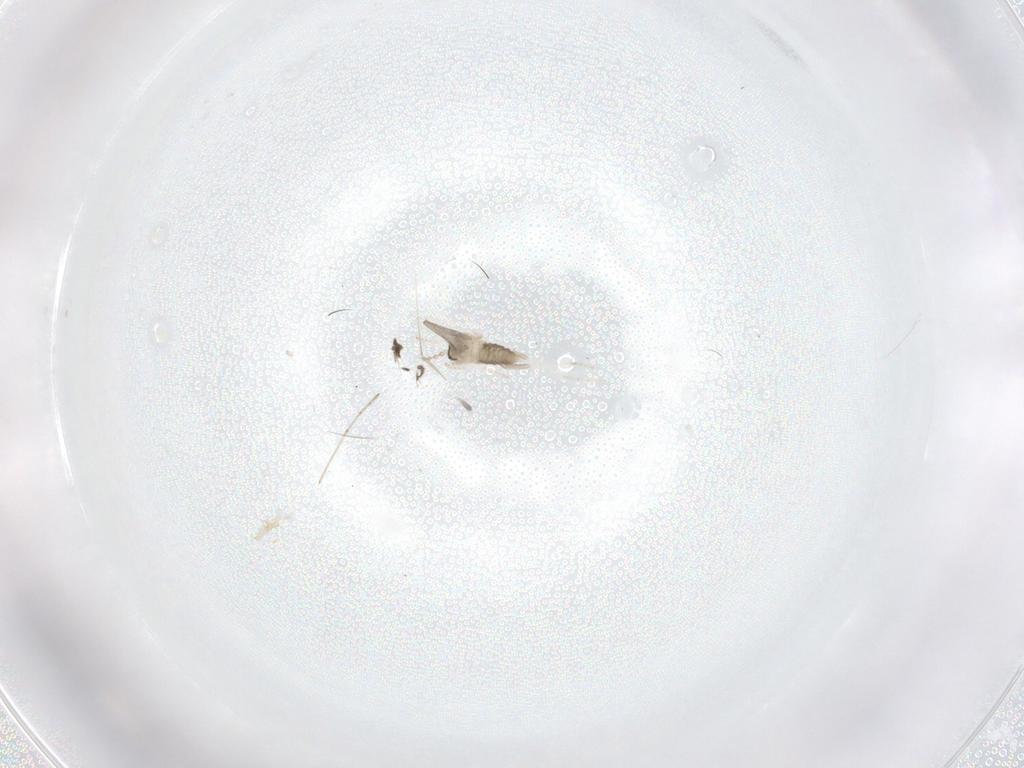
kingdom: Animalia
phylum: Arthropoda
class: Insecta
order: Diptera
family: Cecidomyiidae
